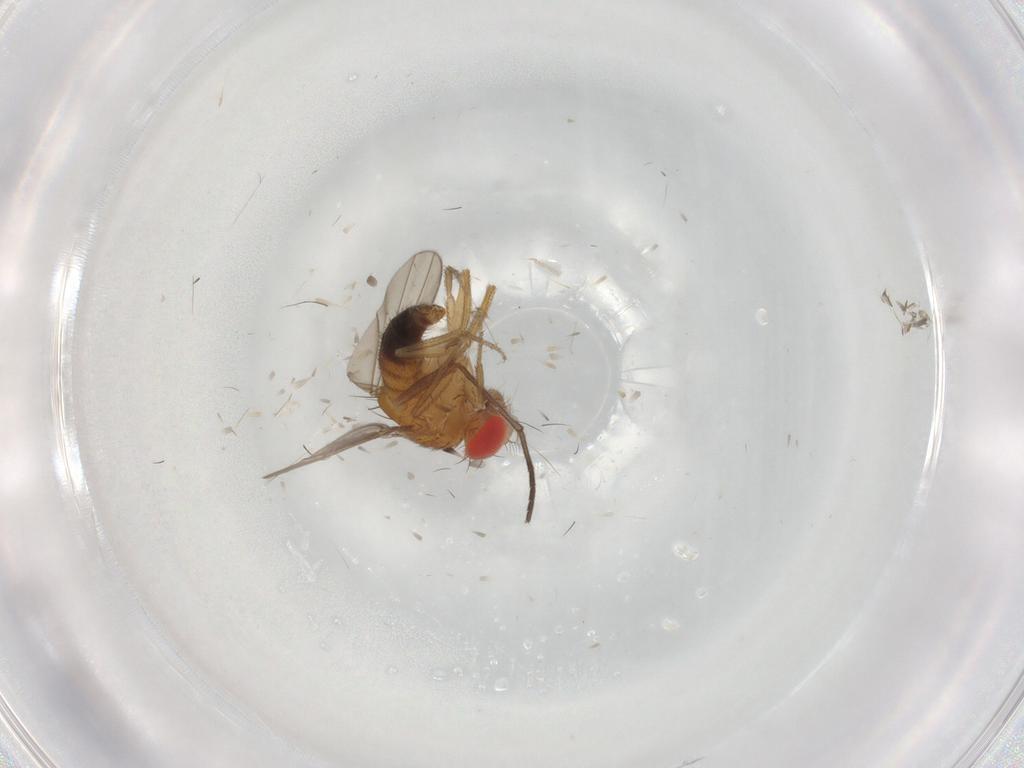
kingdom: Animalia
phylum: Arthropoda
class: Insecta
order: Diptera
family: Drosophilidae
